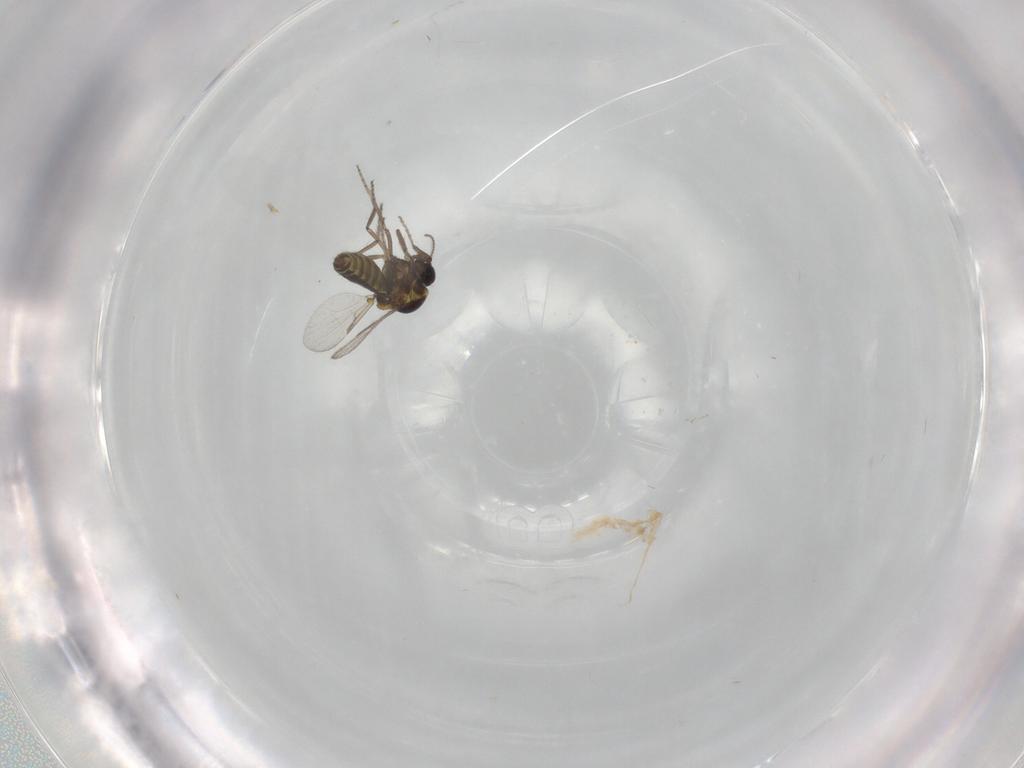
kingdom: Animalia
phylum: Arthropoda
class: Insecta
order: Diptera
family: Ceratopogonidae
